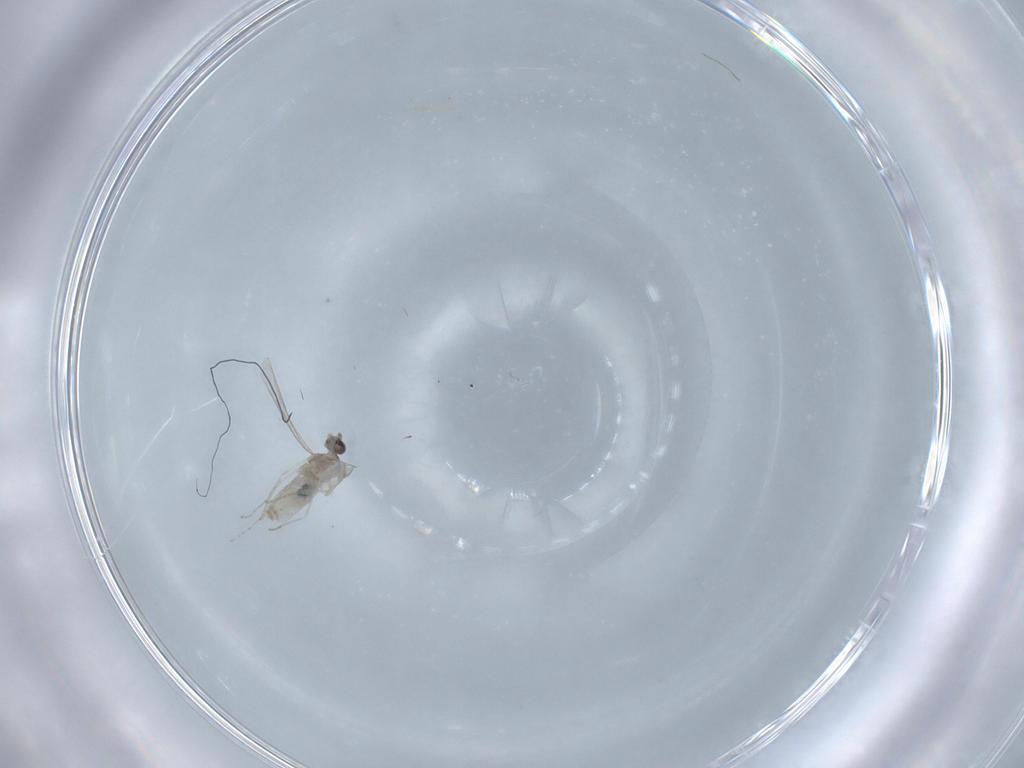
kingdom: Animalia
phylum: Arthropoda
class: Insecta
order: Diptera
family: Cecidomyiidae
